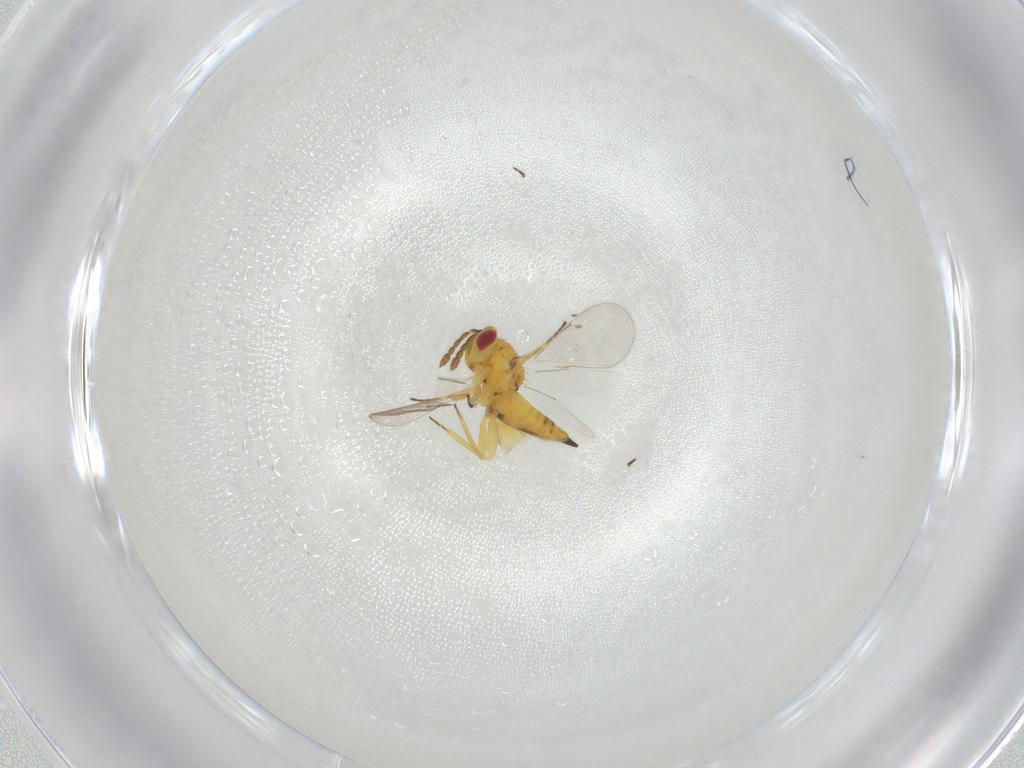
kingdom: Animalia
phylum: Arthropoda
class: Insecta
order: Hymenoptera
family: Eulophidae
